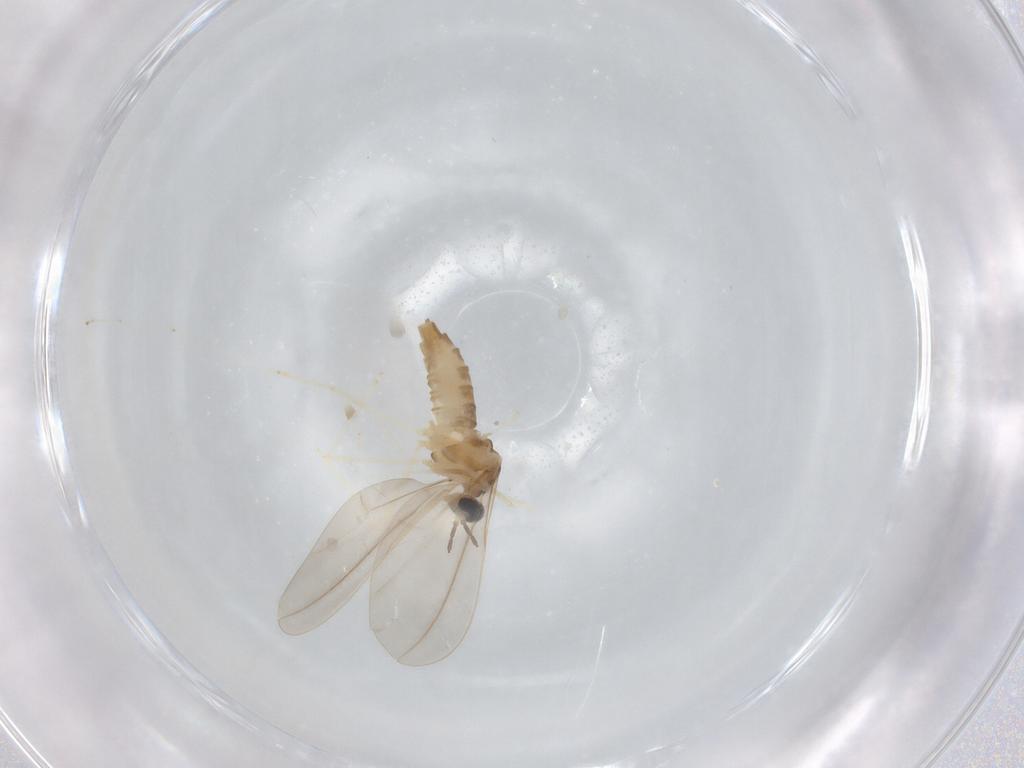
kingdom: Animalia
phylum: Arthropoda
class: Insecta
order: Diptera
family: Cecidomyiidae
